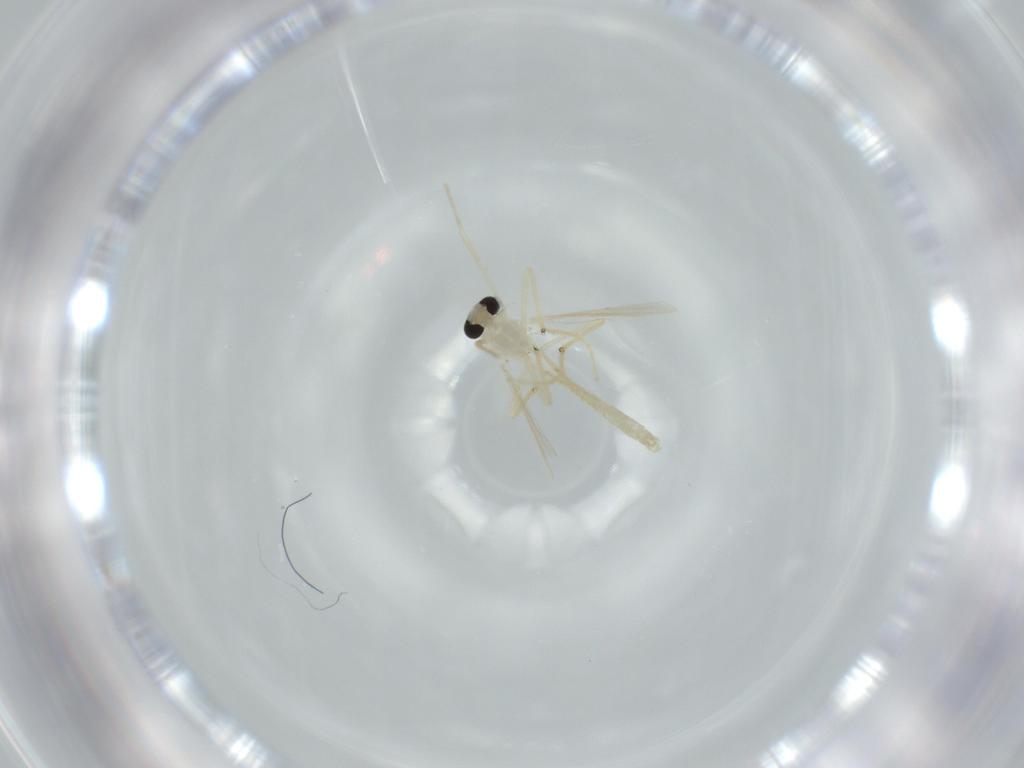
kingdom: Animalia
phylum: Arthropoda
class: Insecta
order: Diptera
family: Chironomidae
